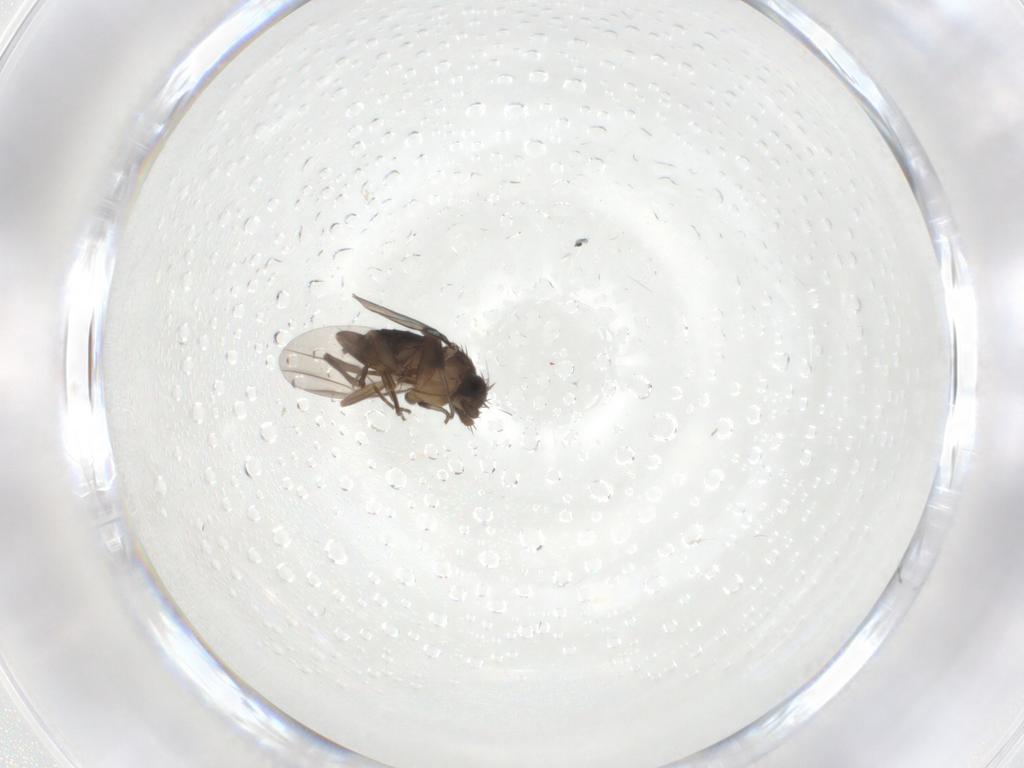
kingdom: Animalia
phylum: Arthropoda
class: Insecta
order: Diptera
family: Phoridae
